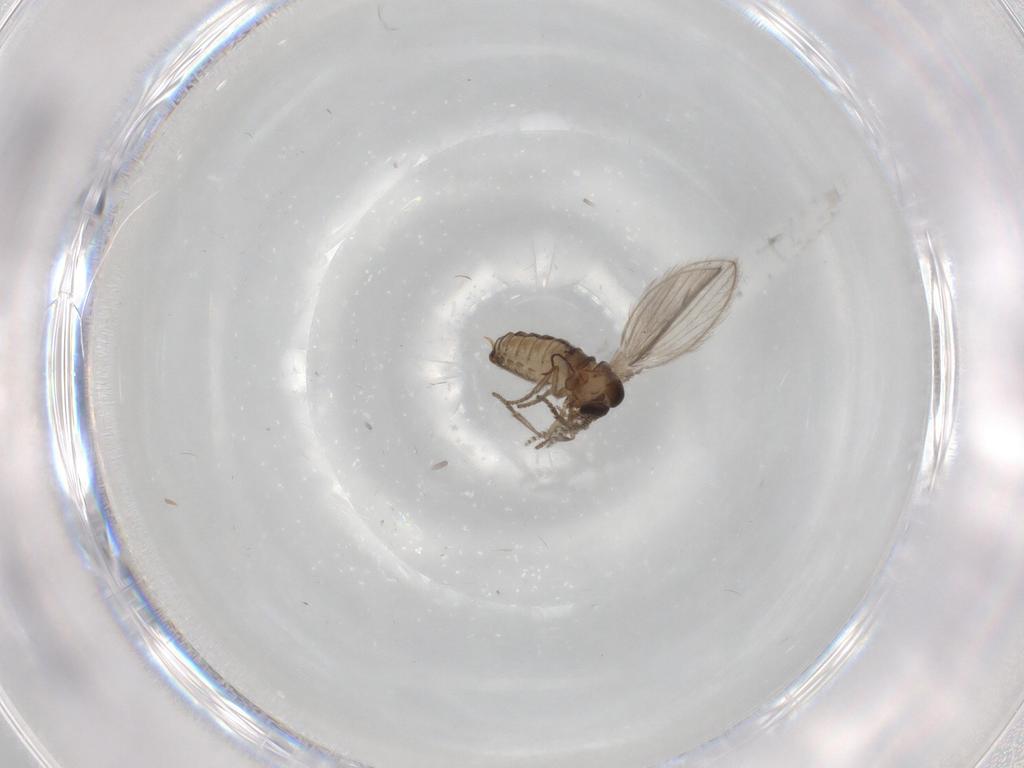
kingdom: Animalia
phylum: Arthropoda
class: Insecta
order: Diptera
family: Psychodidae
